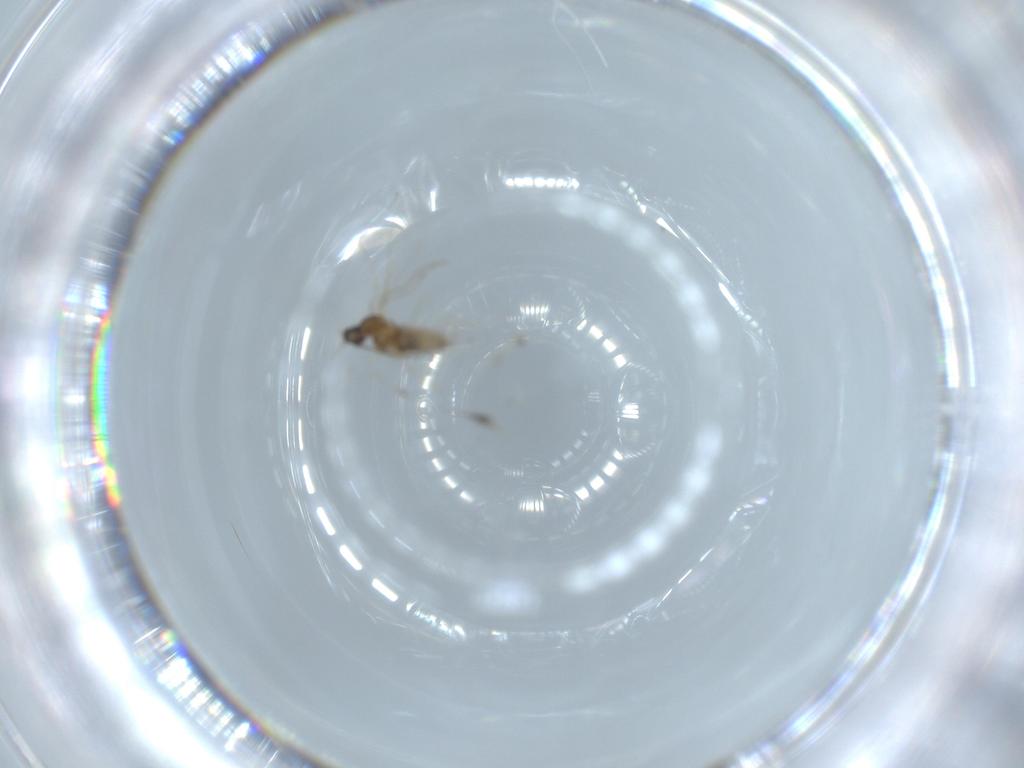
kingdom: Animalia
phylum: Arthropoda
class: Insecta
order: Diptera
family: Cecidomyiidae
